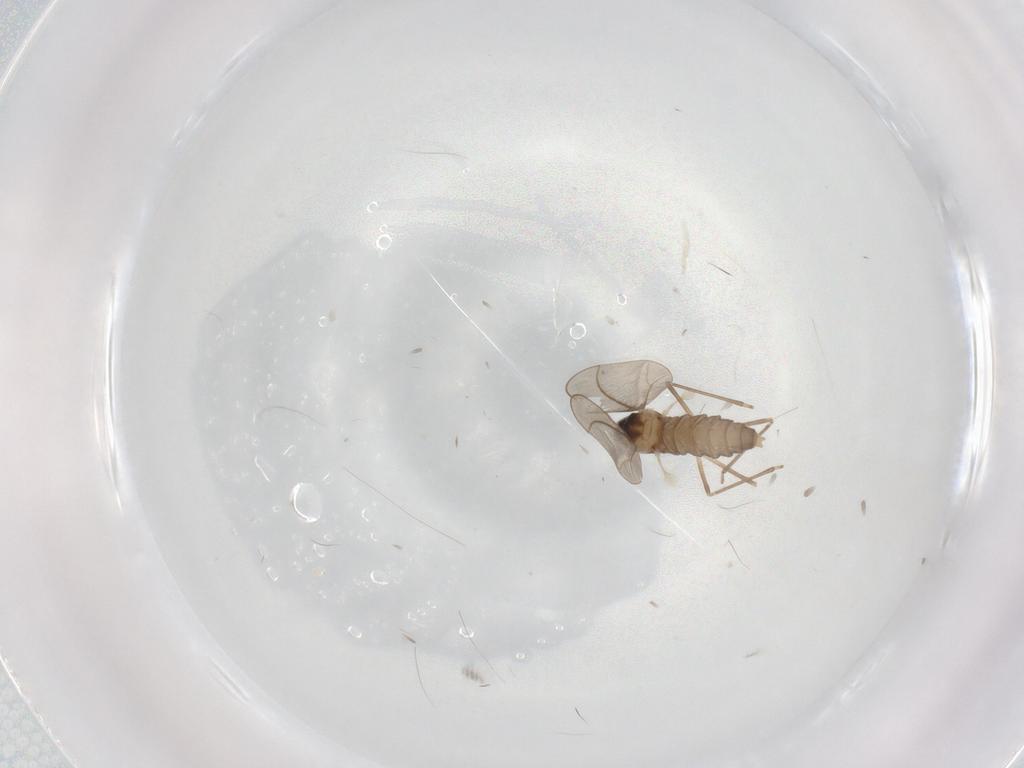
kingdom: Animalia
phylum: Arthropoda
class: Insecta
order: Diptera
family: Cecidomyiidae
